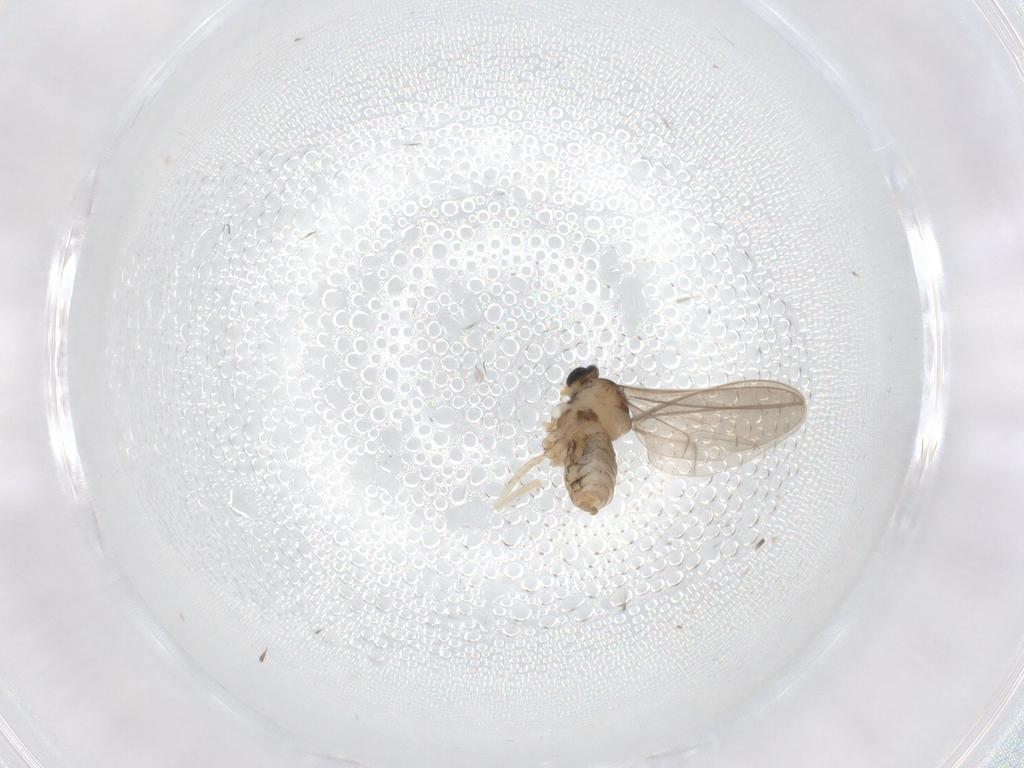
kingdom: Animalia
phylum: Arthropoda
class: Insecta
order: Diptera
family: Cecidomyiidae
